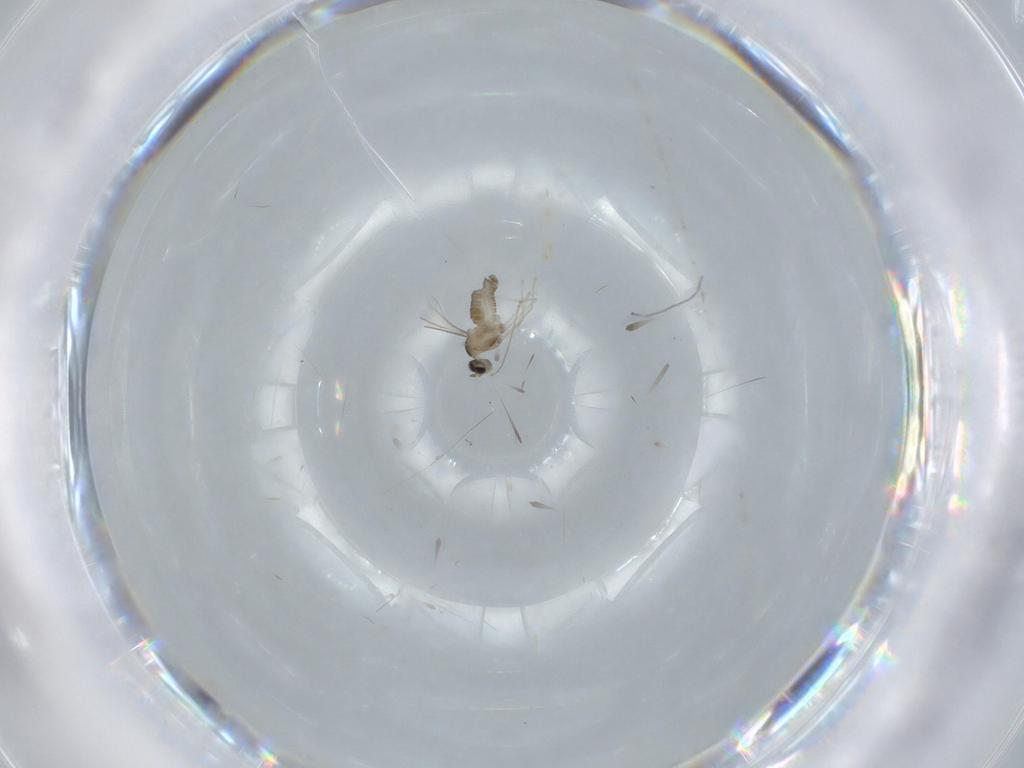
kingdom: Animalia
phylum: Arthropoda
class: Insecta
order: Diptera
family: Cecidomyiidae
